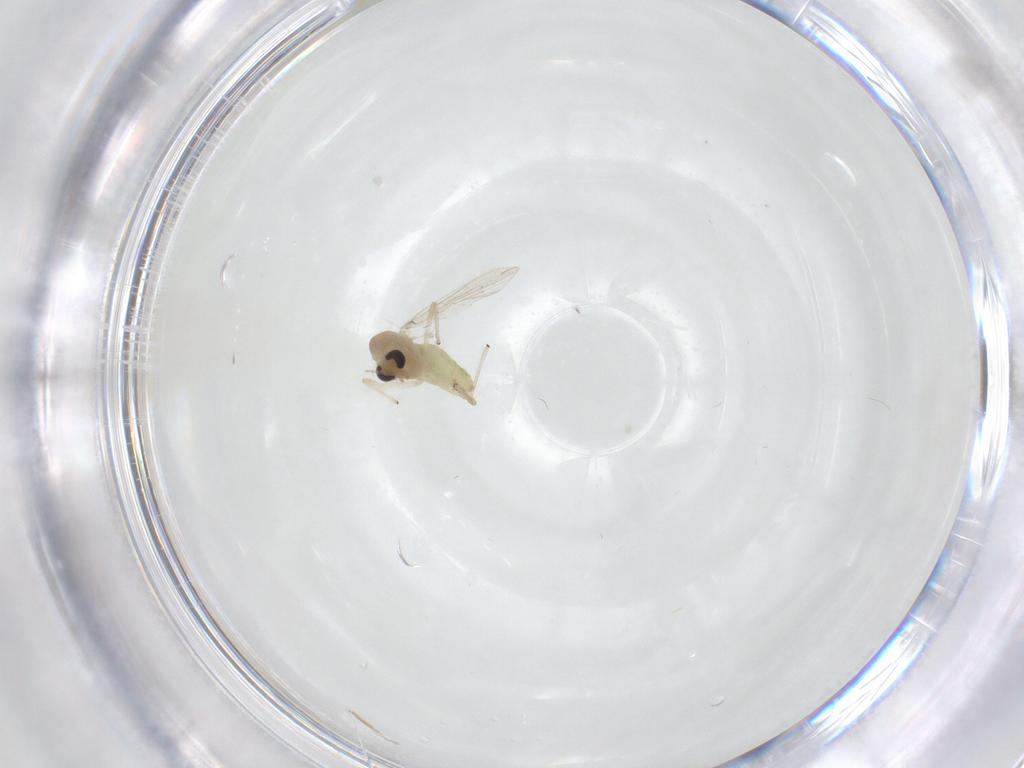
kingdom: Animalia
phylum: Arthropoda
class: Insecta
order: Diptera
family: Chironomidae
